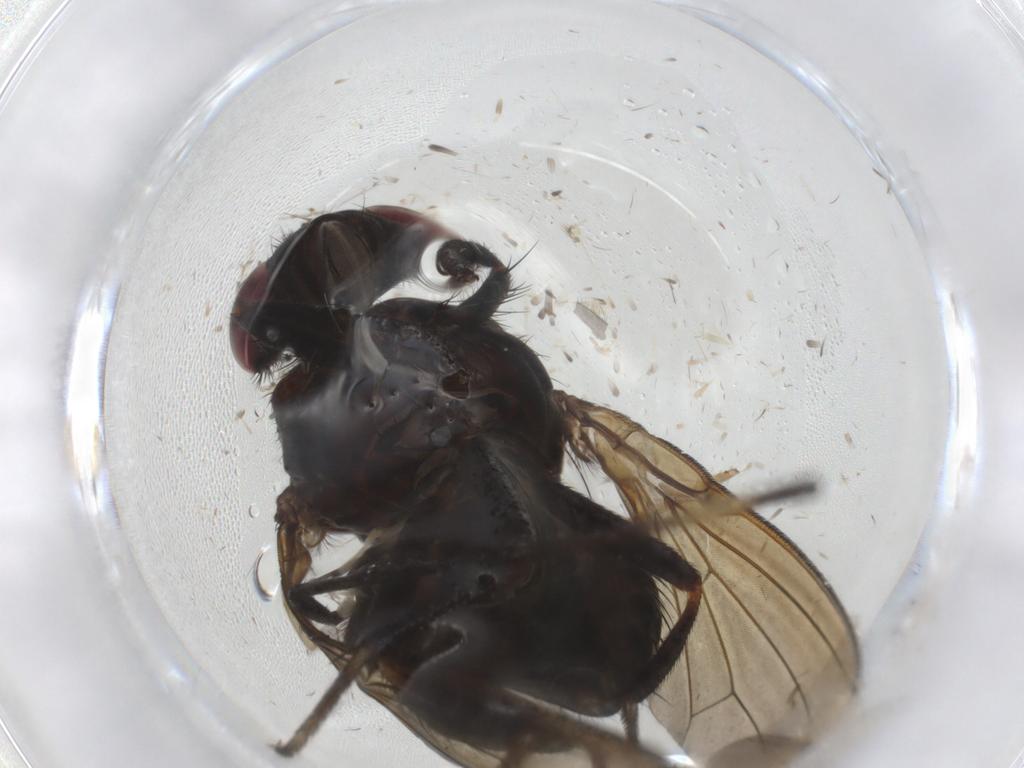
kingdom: Animalia
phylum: Arthropoda
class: Insecta
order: Diptera
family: Lauxaniidae
